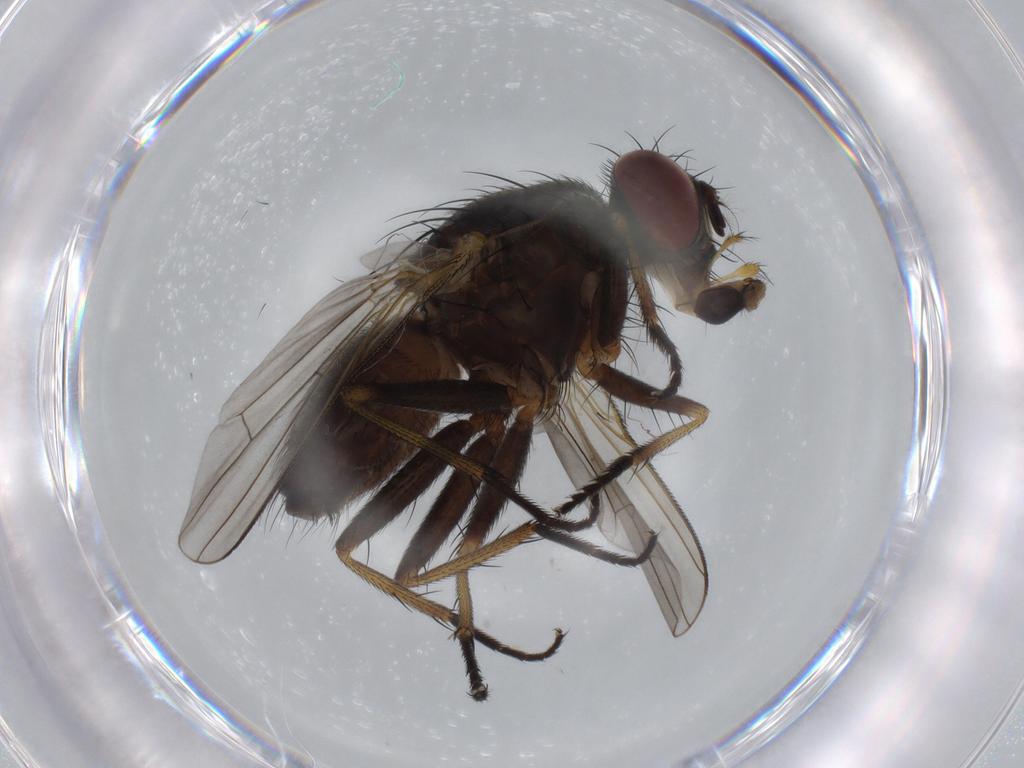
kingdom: Animalia
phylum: Arthropoda
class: Insecta
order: Diptera
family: Muscidae
